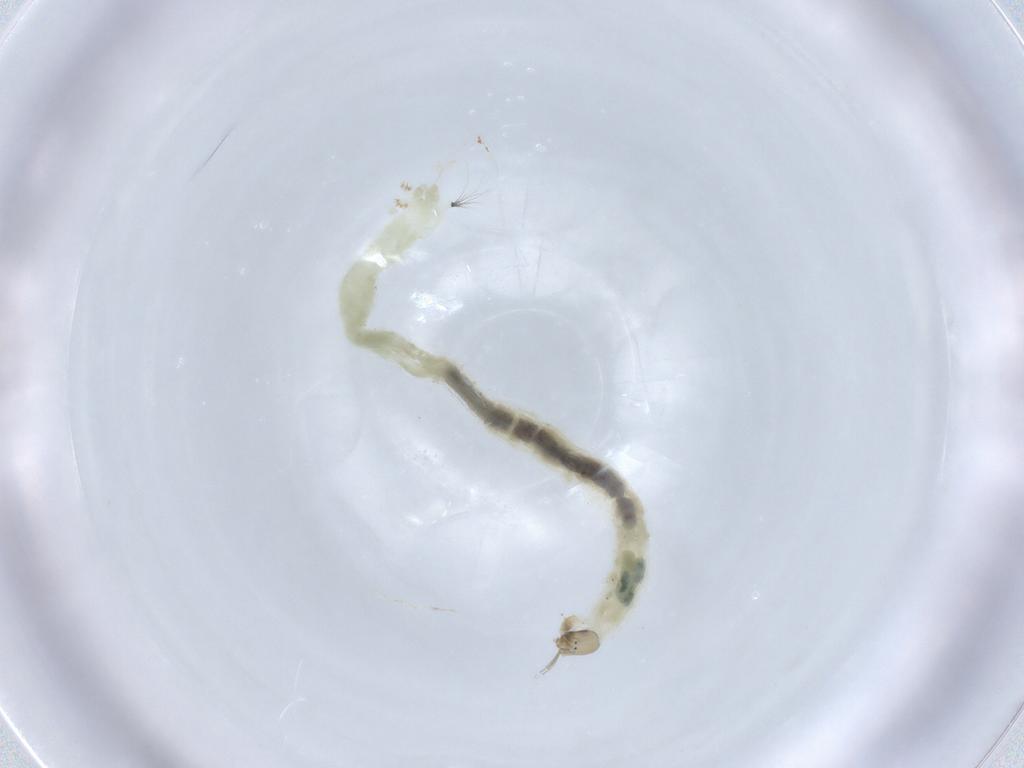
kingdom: Animalia
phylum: Arthropoda
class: Insecta
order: Diptera
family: Chironomidae
